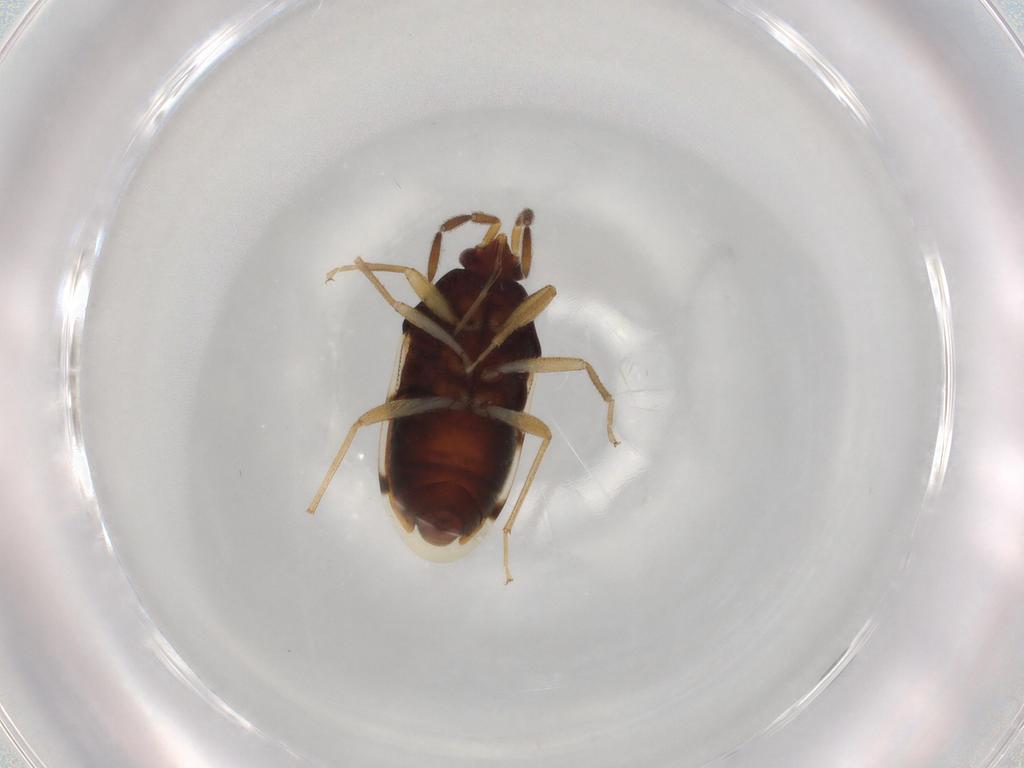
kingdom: Animalia
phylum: Arthropoda
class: Insecta
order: Hemiptera
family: Rhyparochromidae
